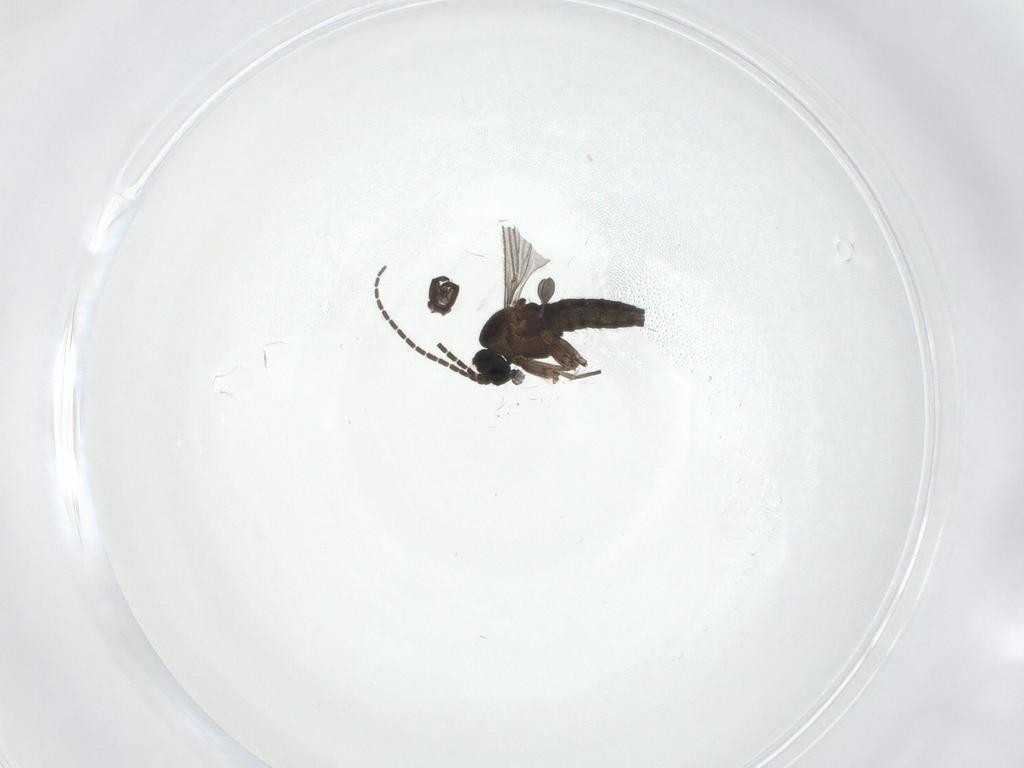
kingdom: Animalia
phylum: Arthropoda
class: Insecta
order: Diptera
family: Sciaridae
